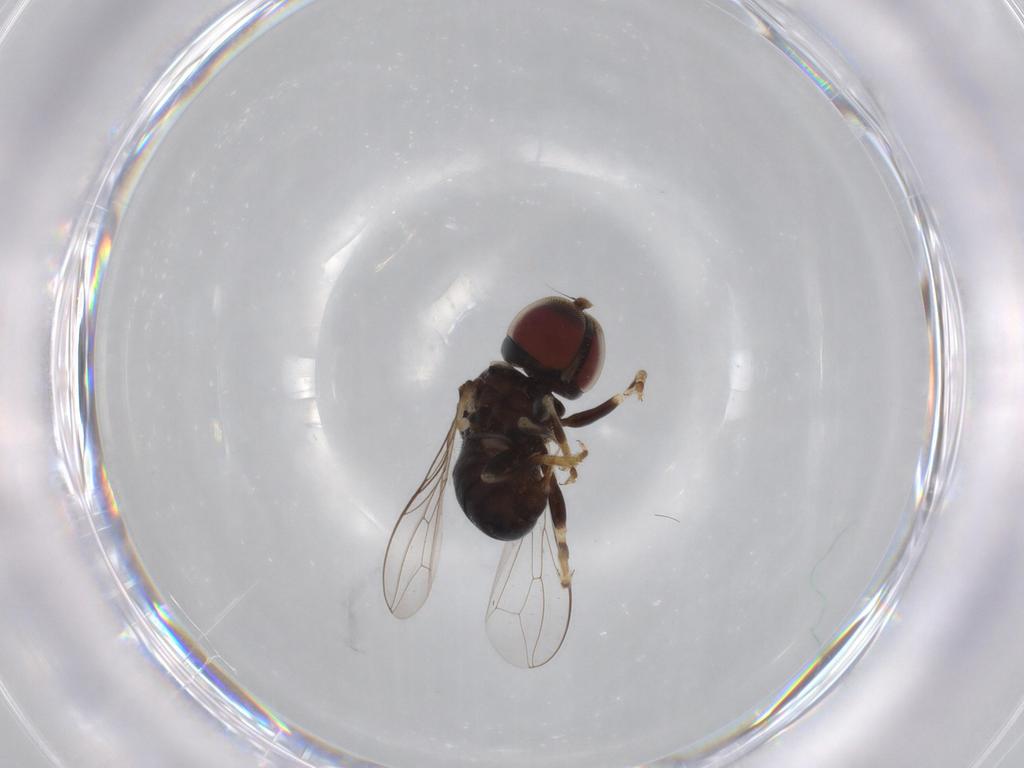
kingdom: Animalia
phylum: Arthropoda
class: Insecta
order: Diptera
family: Pipunculidae
